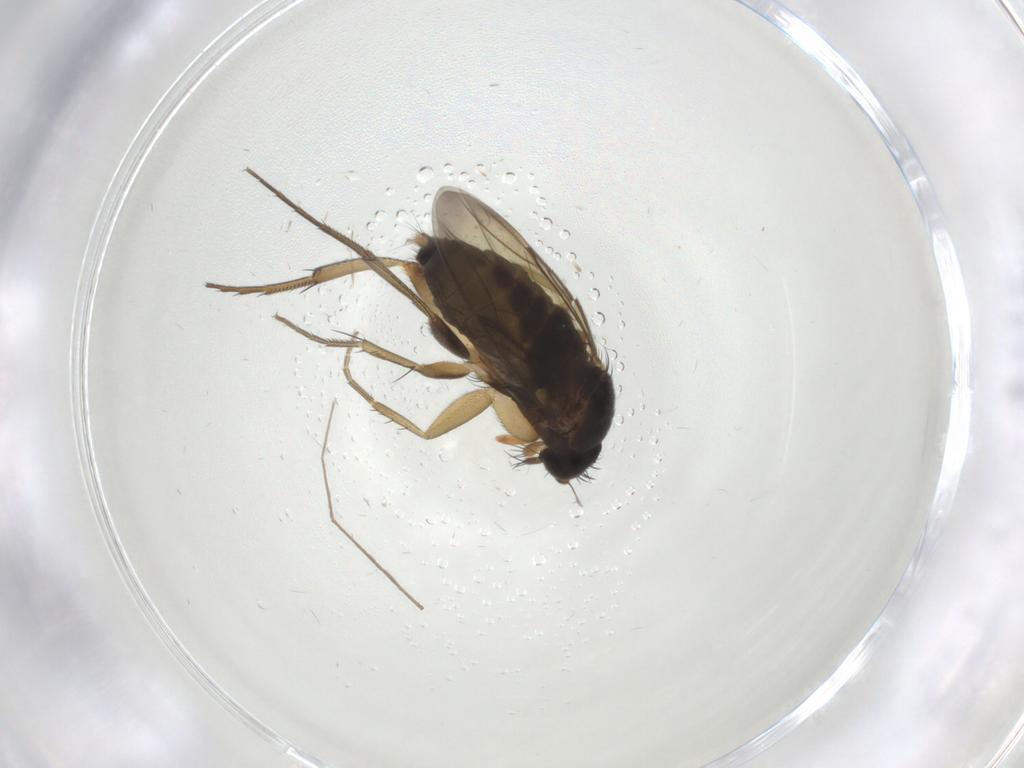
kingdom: Animalia
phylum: Arthropoda
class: Insecta
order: Diptera
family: Phoridae
